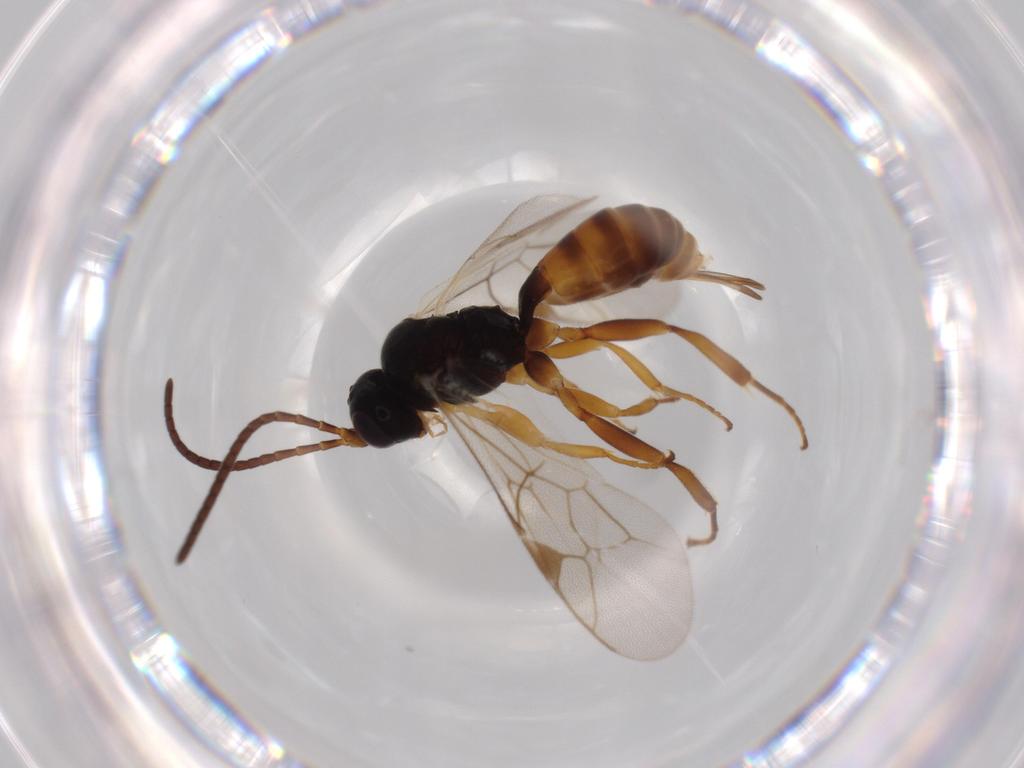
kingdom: Animalia
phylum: Arthropoda
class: Insecta
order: Hymenoptera
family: Ichneumonidae
